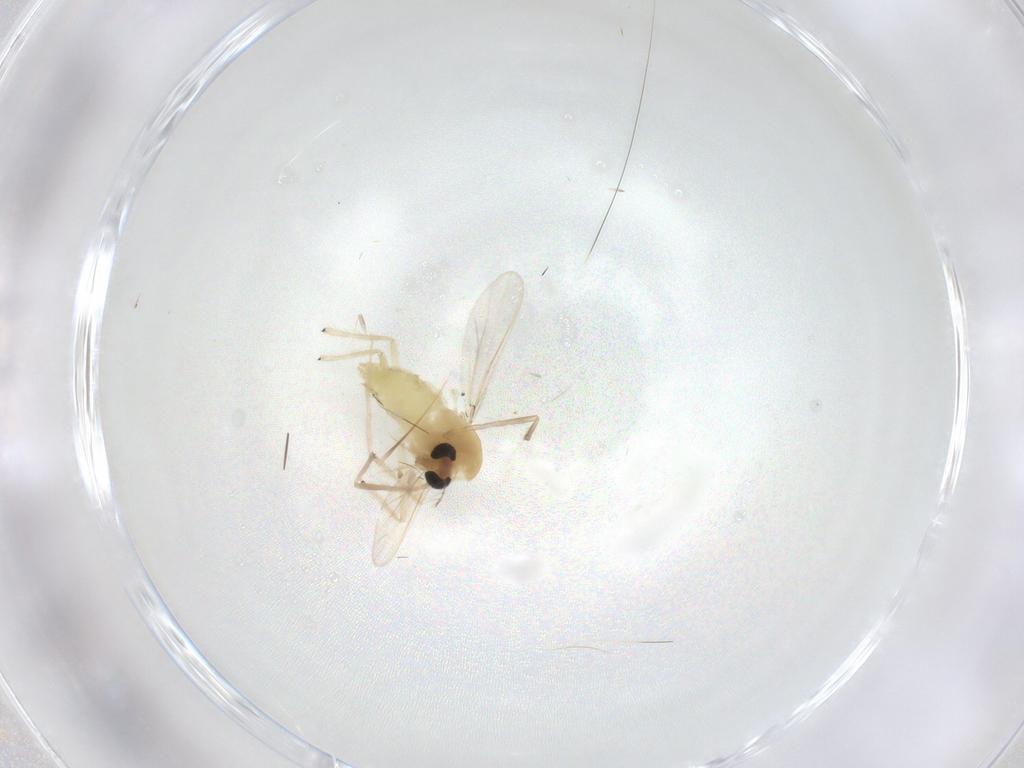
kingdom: Animalia
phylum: Arthropoda
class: Insecta
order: Diptera
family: Ceratopogonidae
